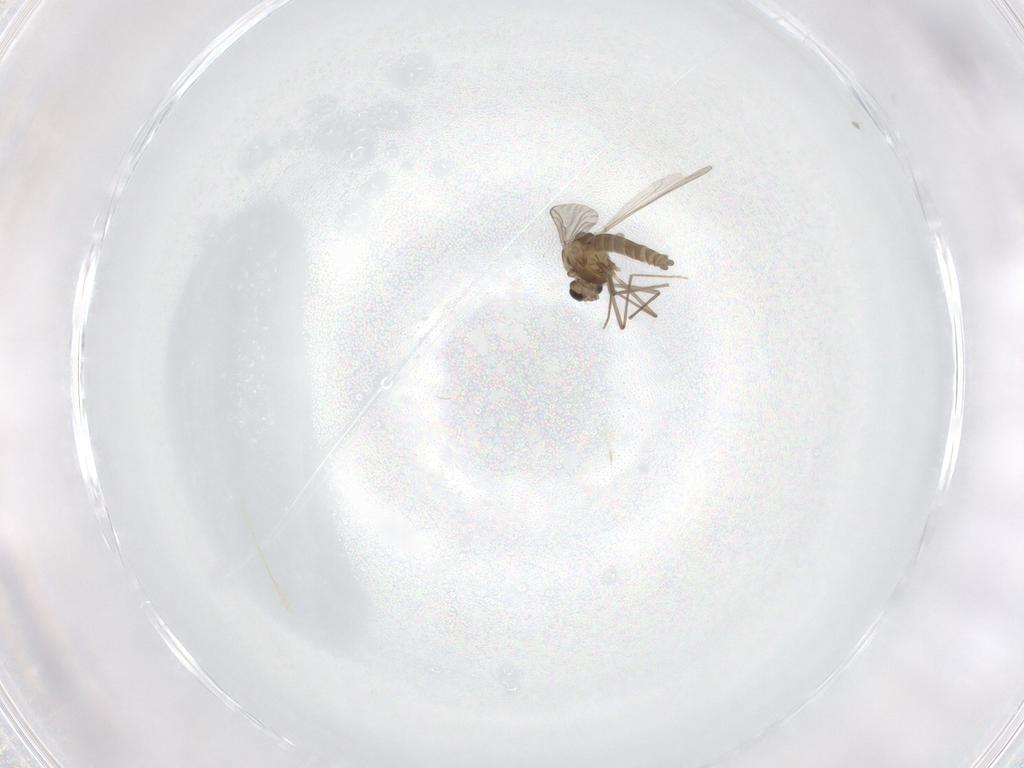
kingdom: Animalia
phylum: Arthropoda
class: Insecta
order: Diptera
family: Chironomidae
